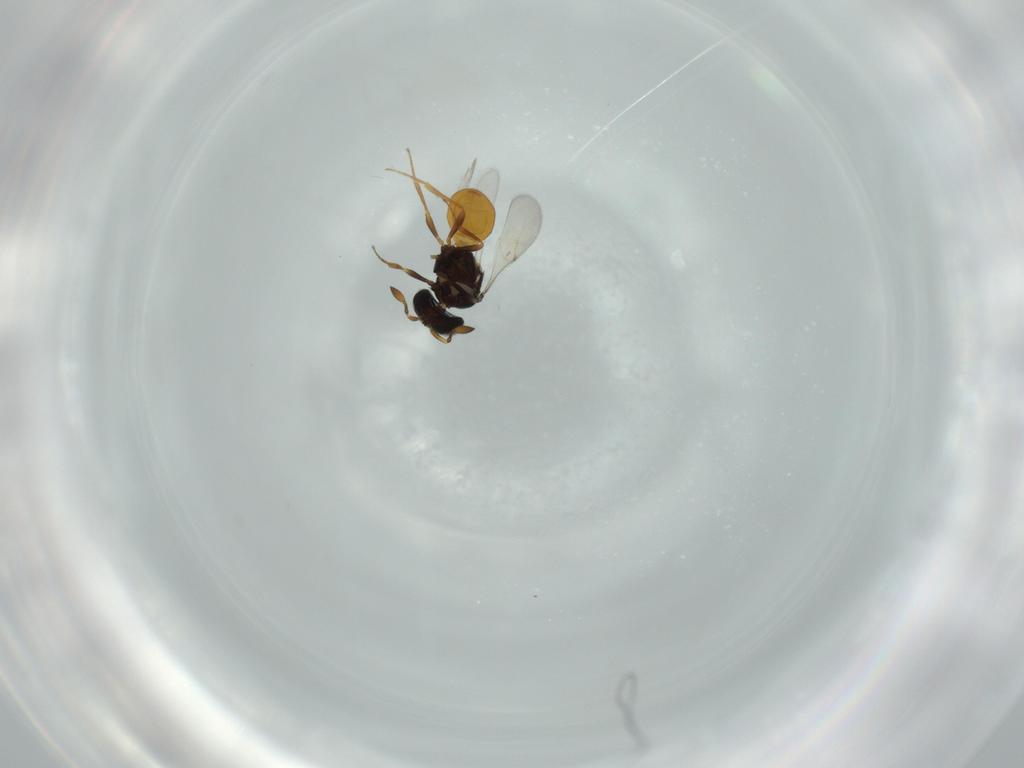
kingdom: Animalia
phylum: Arthropoda
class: Insecta
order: Hymenoptera
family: Scelionidae
